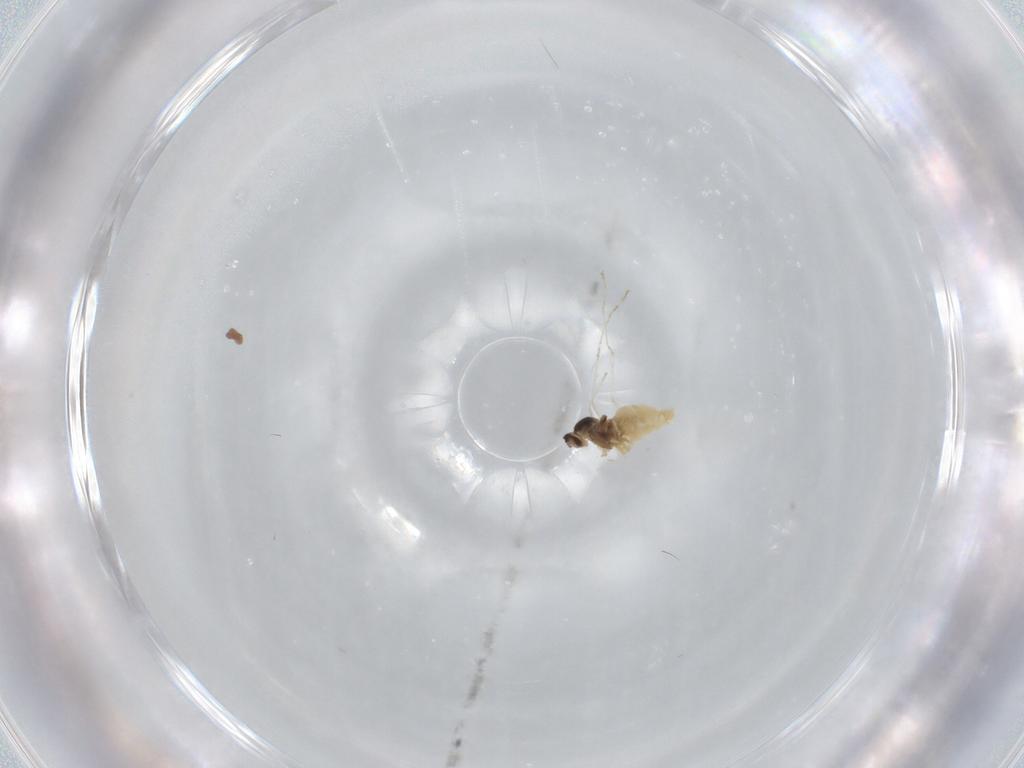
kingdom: Animalia
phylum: Arthropoda
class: Insecta
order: Diptera
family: Cecidomyiidae
